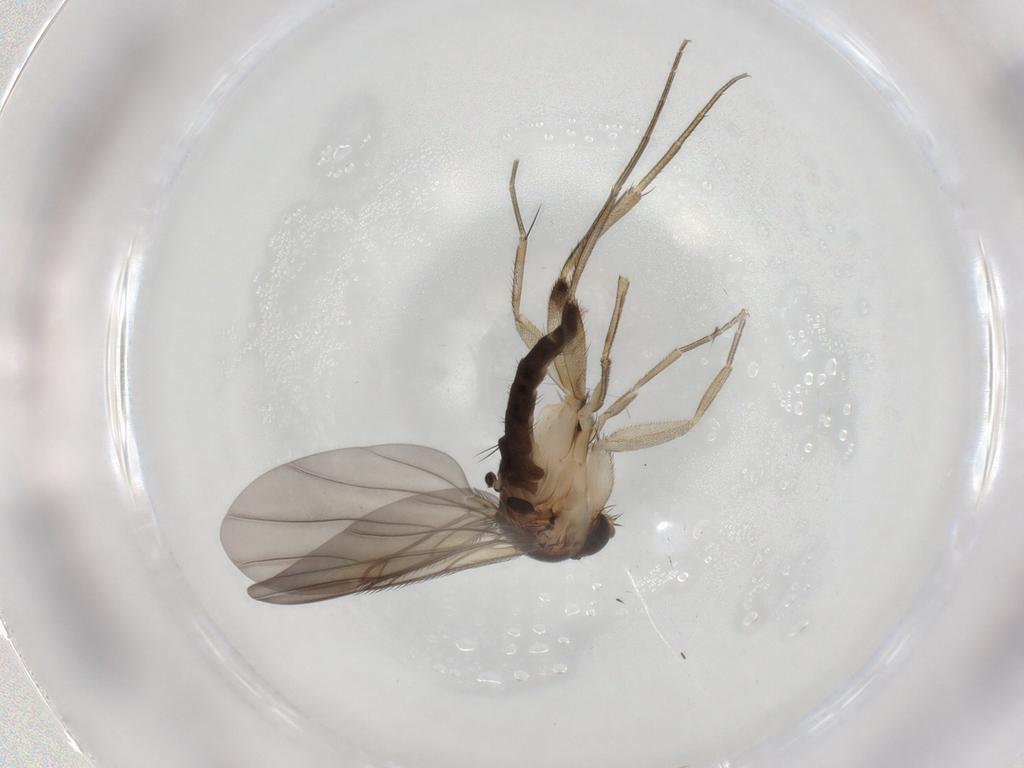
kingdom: Animalia
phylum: Arthropoda
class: Insecta
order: Diptera
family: Phoridae
